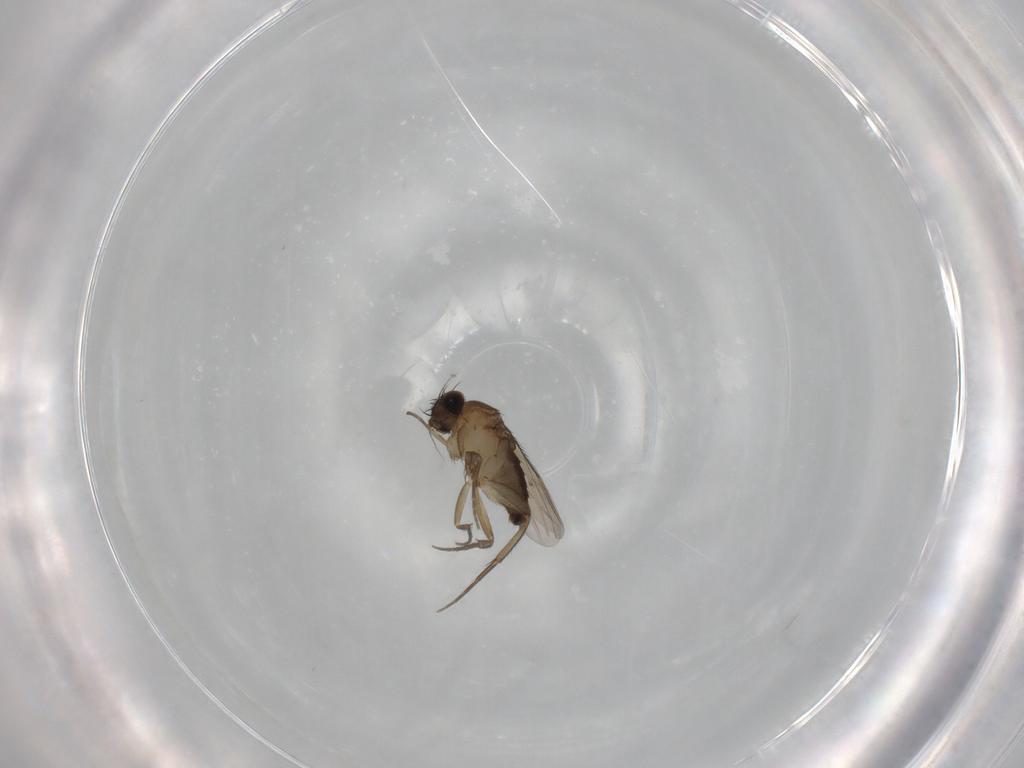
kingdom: Animalia
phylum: Arthropoda
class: Insecta
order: Diptera
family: Phoridae
